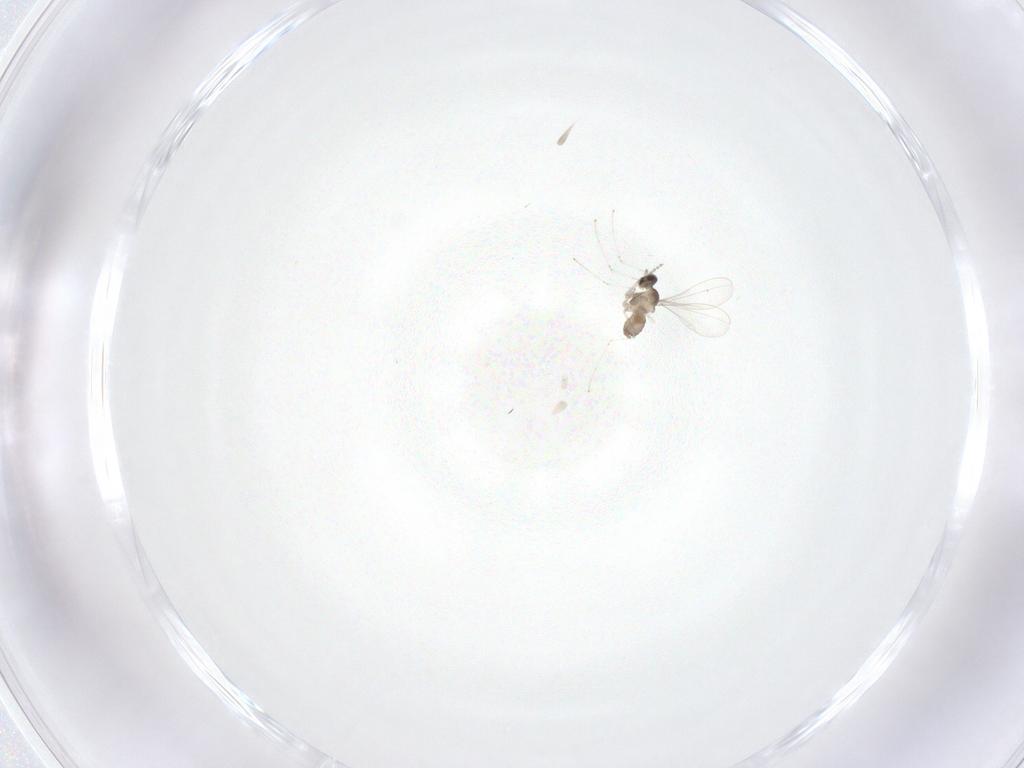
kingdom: Animalia
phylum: Arthropoda
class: Insecta
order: Diptera
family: Cecidomyiidae
